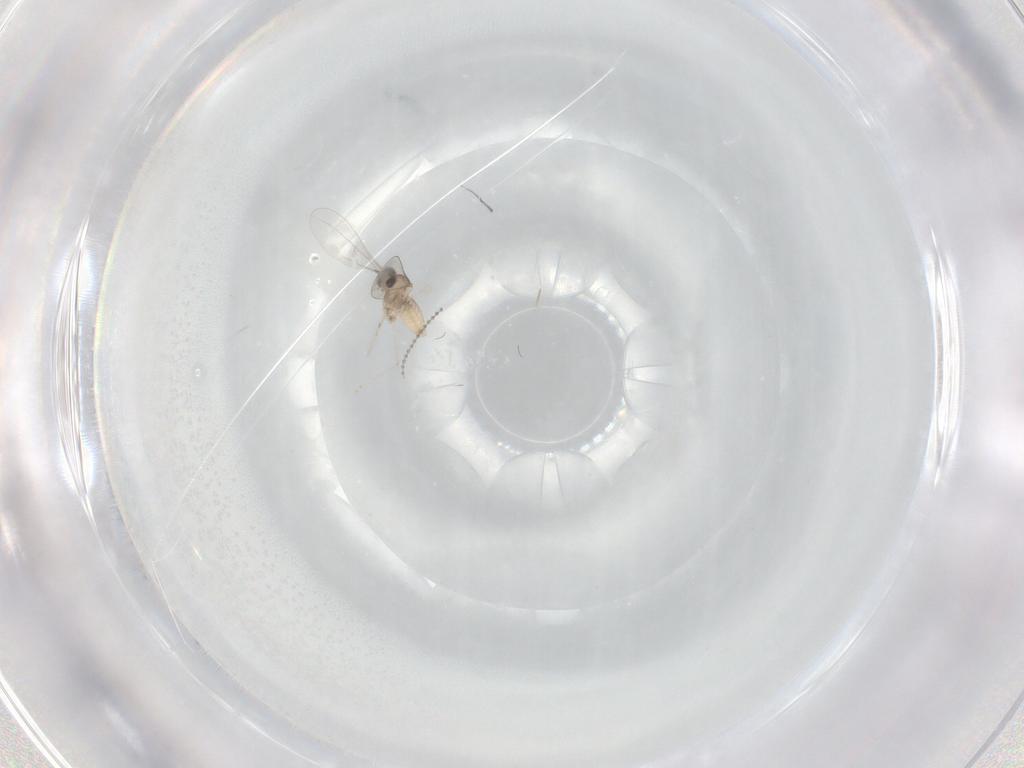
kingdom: Animalia
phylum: Arthropoda
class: Insecta
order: Diptera
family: Cecidomyiidae
